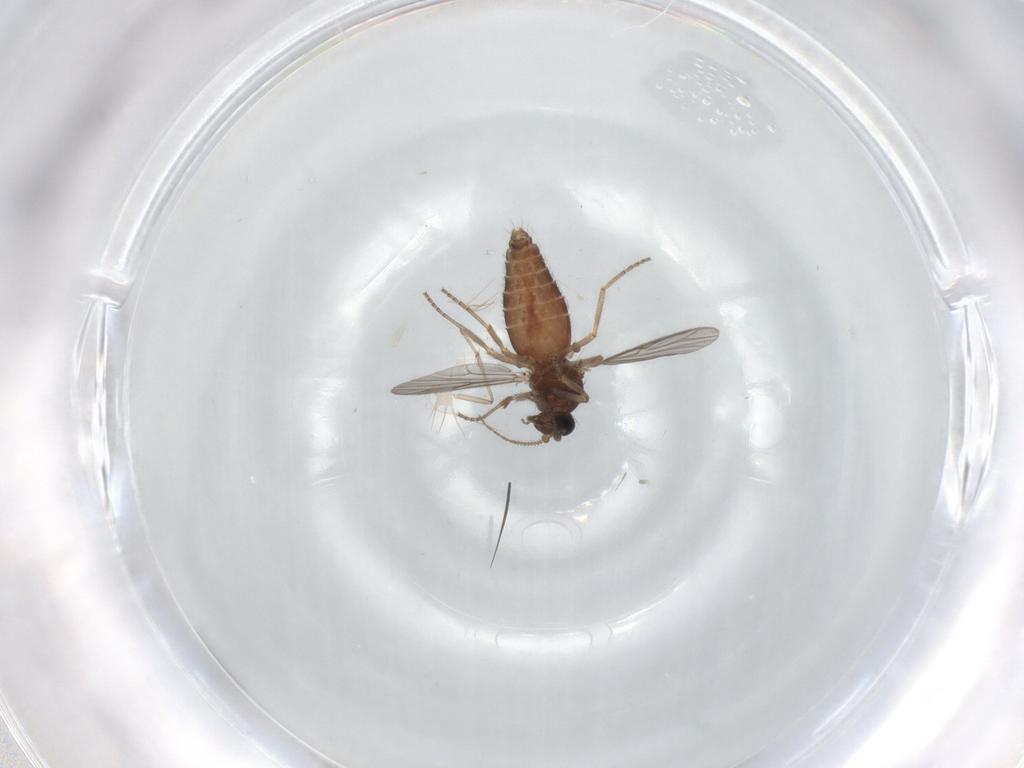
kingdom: Animalia
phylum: Arthropoda
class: Insecta
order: Diptera
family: Ceratopogonidae
